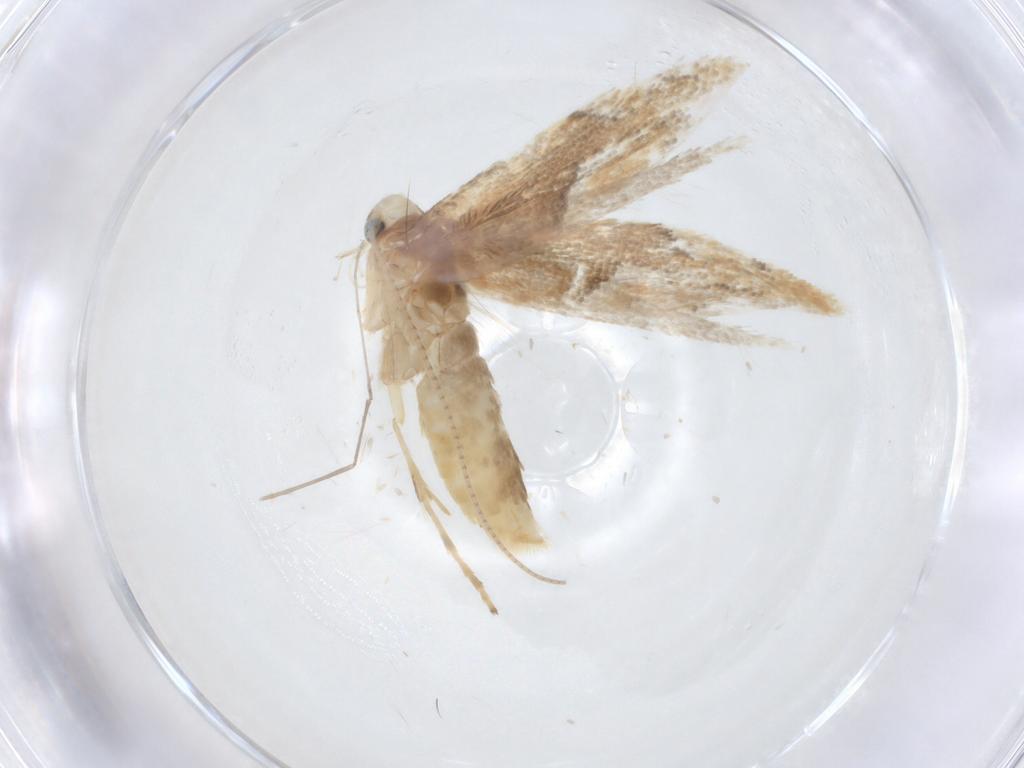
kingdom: Animalia
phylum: Arthropoda
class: Insecta
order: Lepidoptera
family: Gracillariidae
